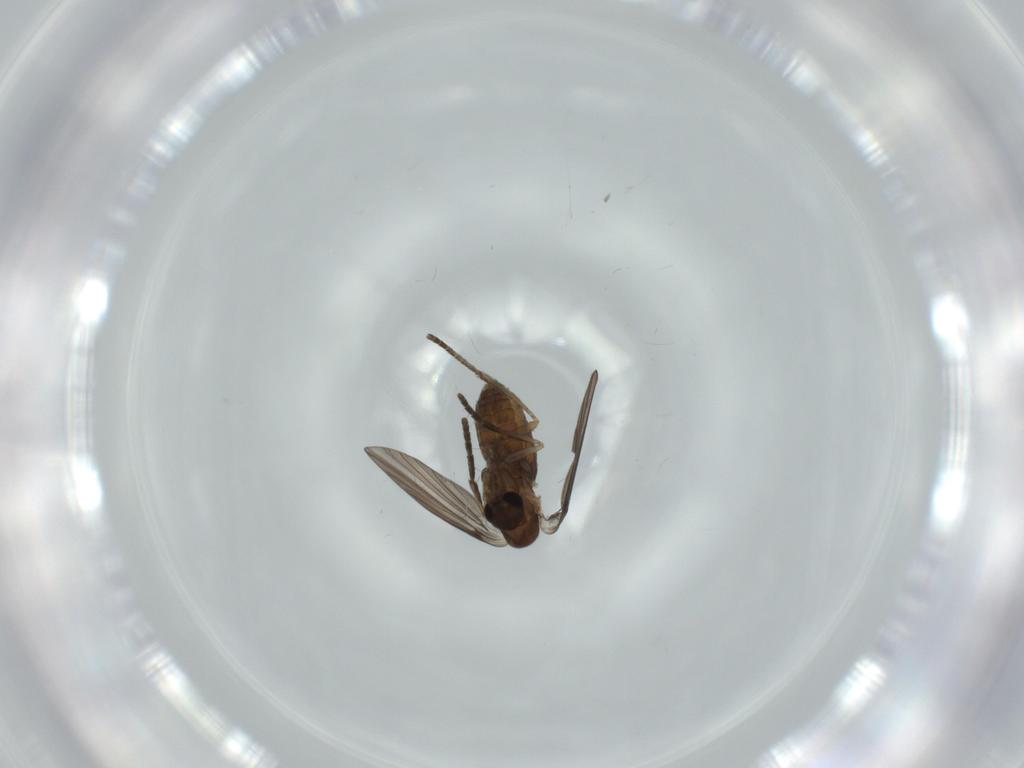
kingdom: Animalia
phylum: Arthropoda
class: Insecta
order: Diptera
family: Psychodidae
